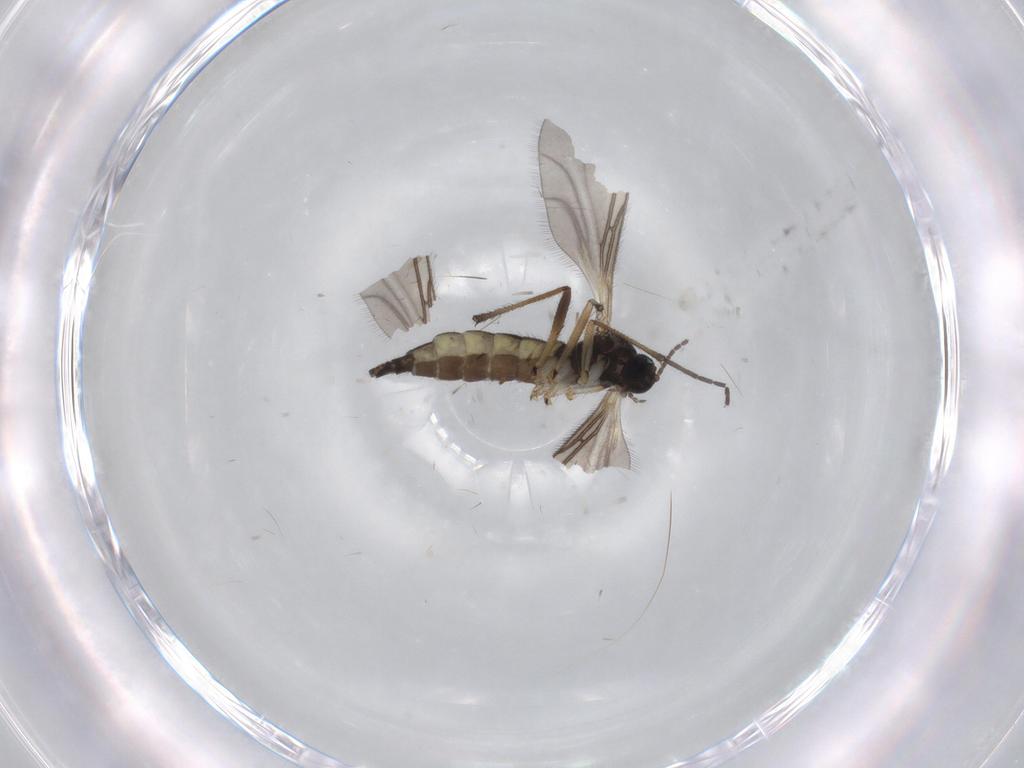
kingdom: Animalia
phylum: Arthropoda
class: Insecta
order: Diptera
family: Sciaridae
